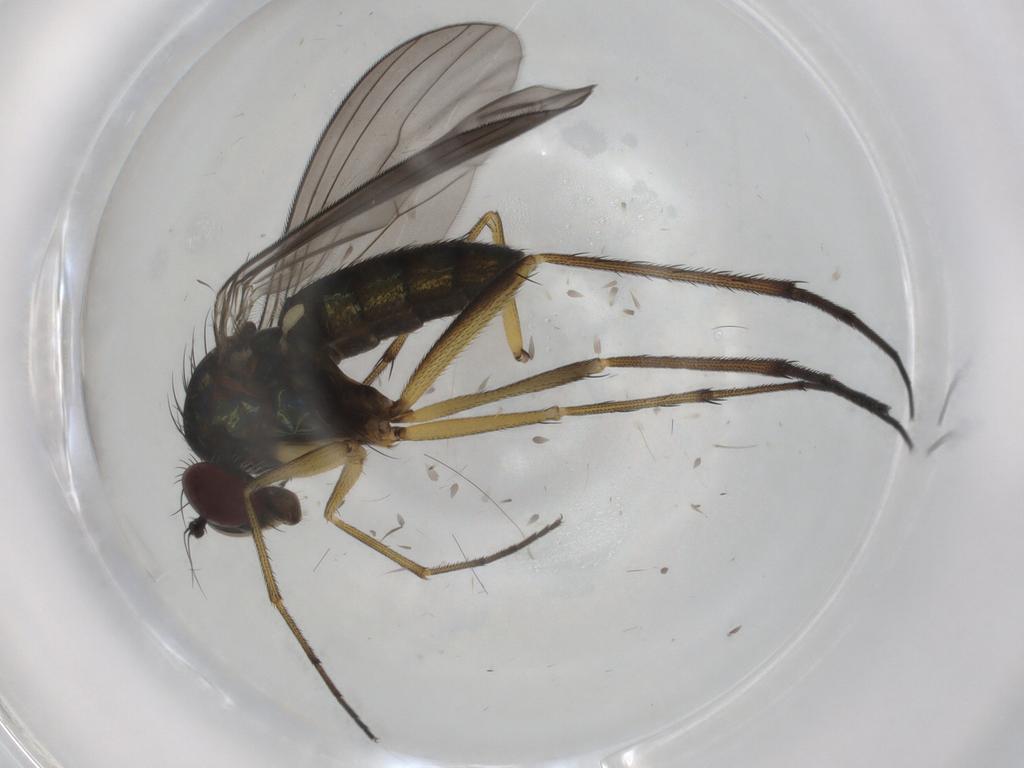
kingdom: Animalia
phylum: Arthropoda
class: Insecta
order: Diptera
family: Dolichopodidae
